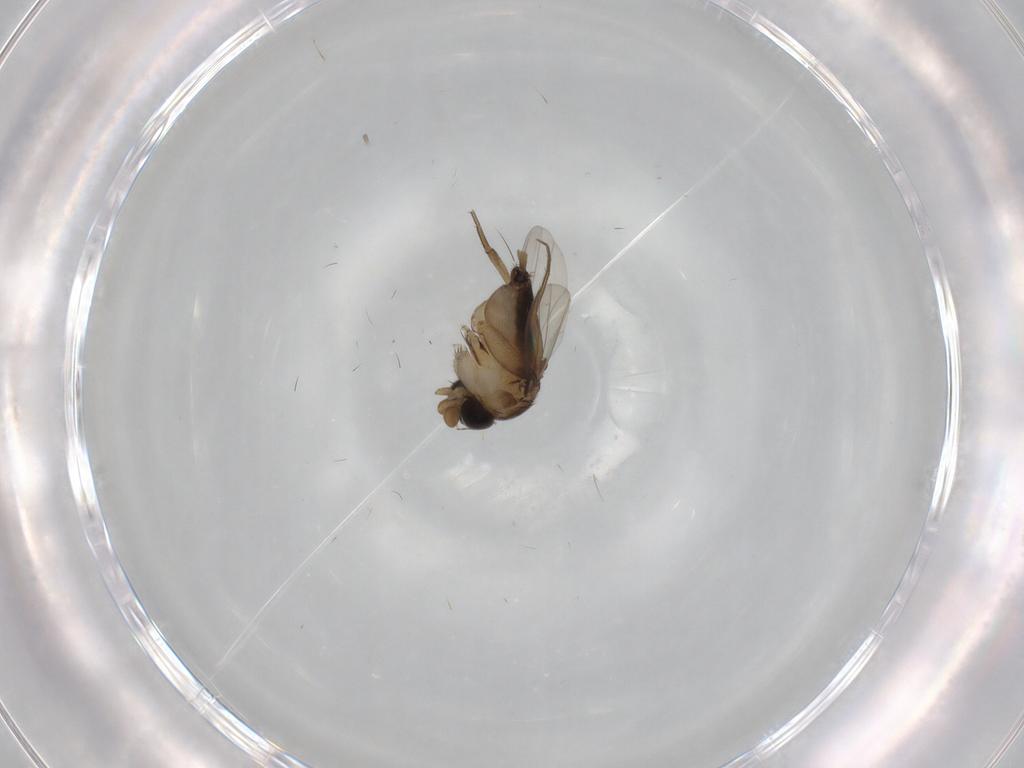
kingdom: Animalia
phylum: Arthropoda
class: Insecta
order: Diptera
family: Phoridae
